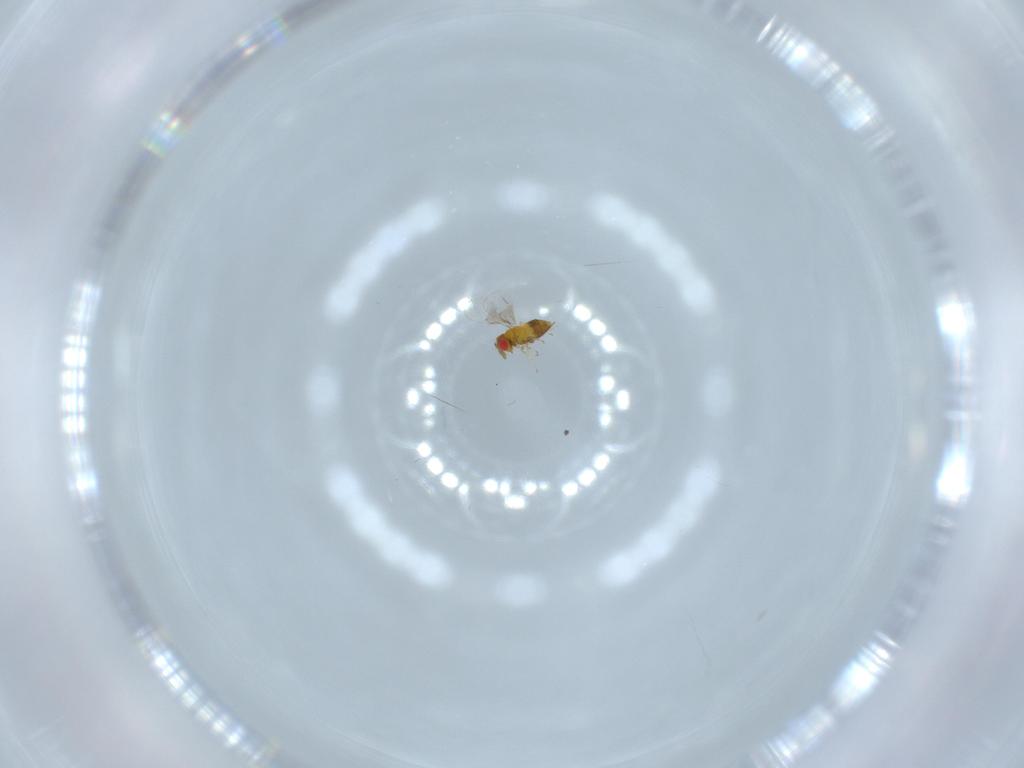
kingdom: Animalia
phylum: Arthropoda
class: Insecta
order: Hymenoptera
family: Trichogrammatidae
